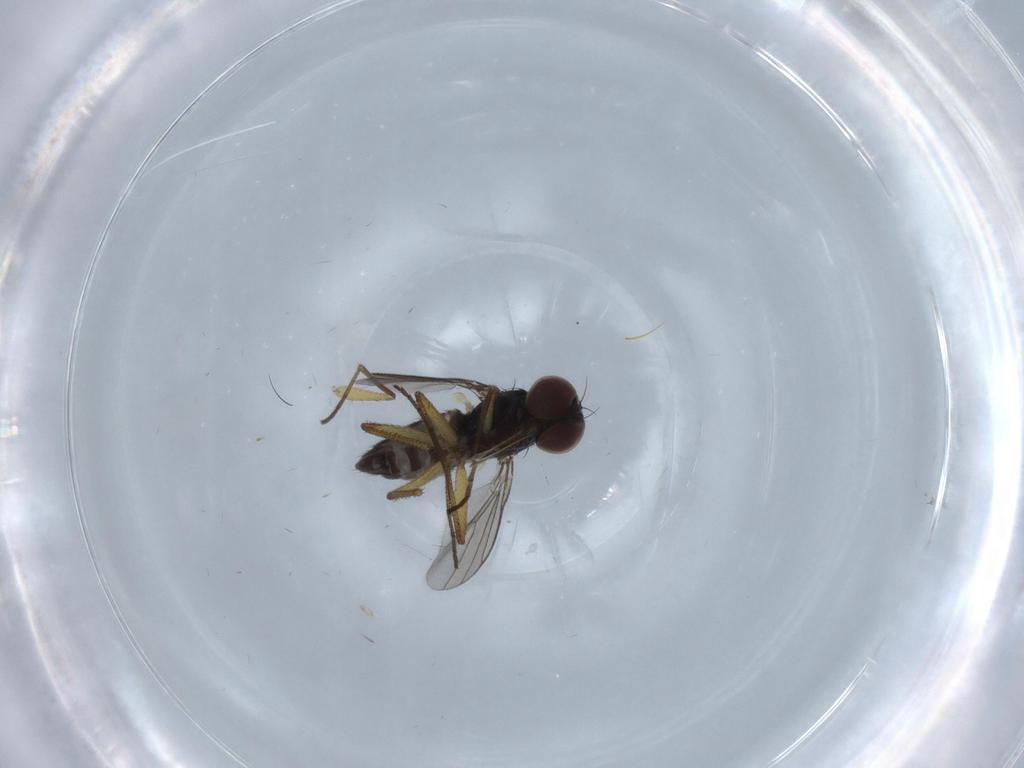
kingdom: Animalia
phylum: Arthropoda
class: Insecta
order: Diptera
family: Dolichopodidae
